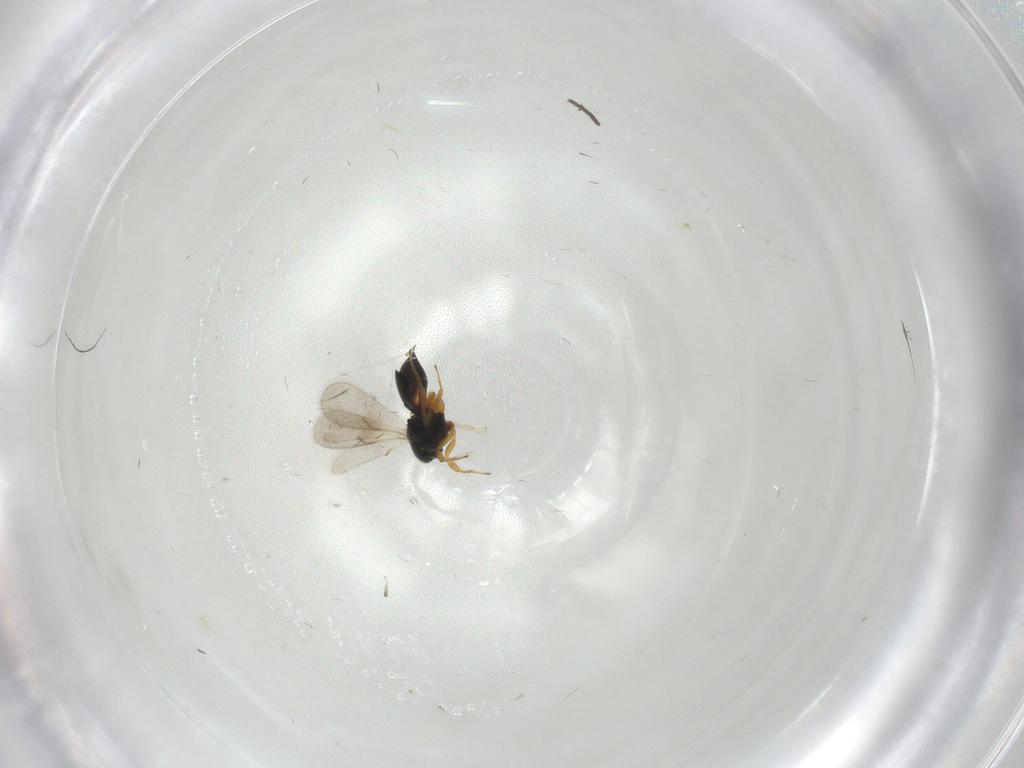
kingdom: Animalia
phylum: Arthropoda
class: Insecta
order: Hymenoptera
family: Scelionidae
